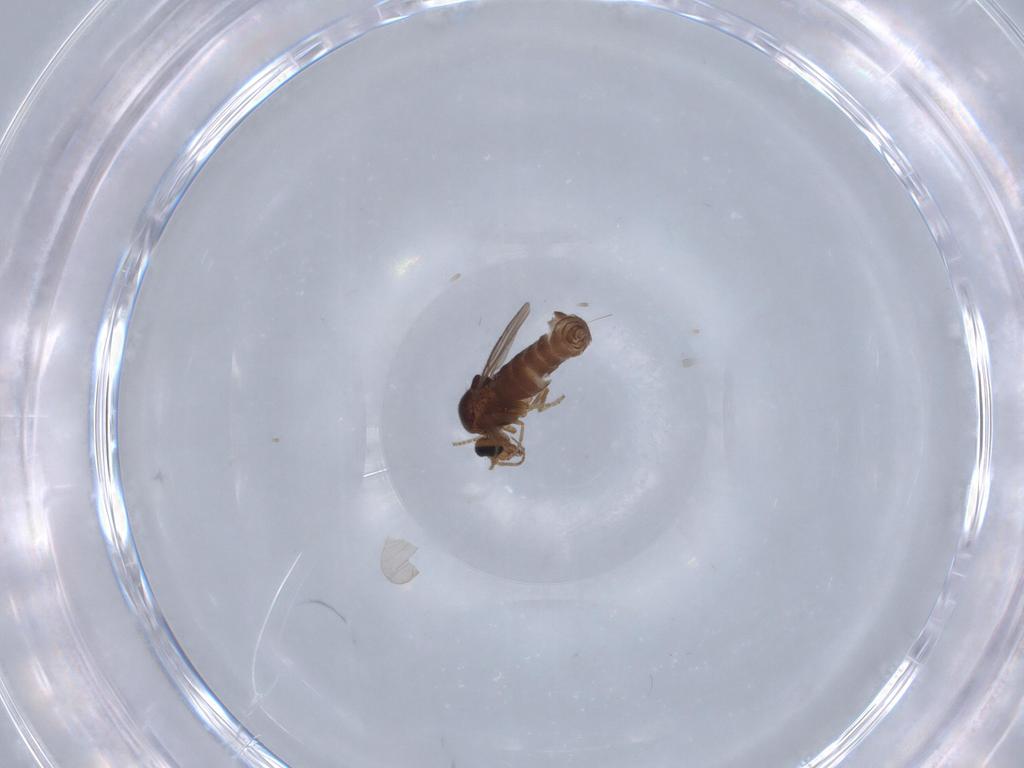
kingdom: Animalia
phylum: Arthropoda
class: Insecta
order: Diptera
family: Ceratopogonidae
